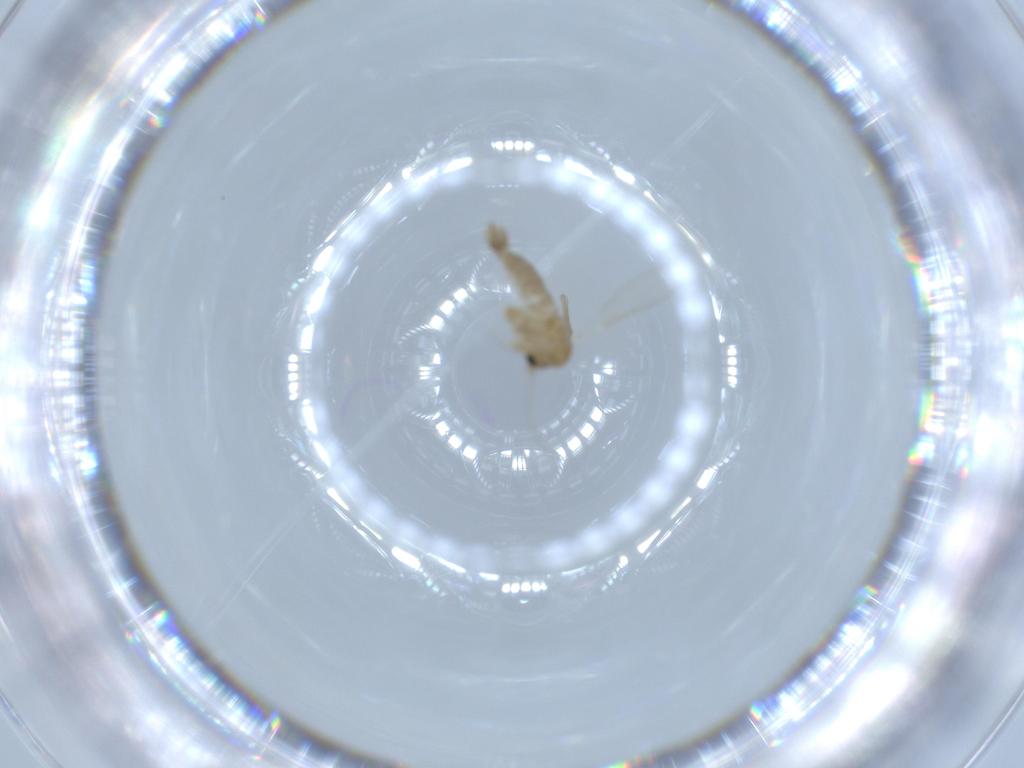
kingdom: Animalia
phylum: Arthropoda
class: Insecta
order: Diptera
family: Psychodidae
